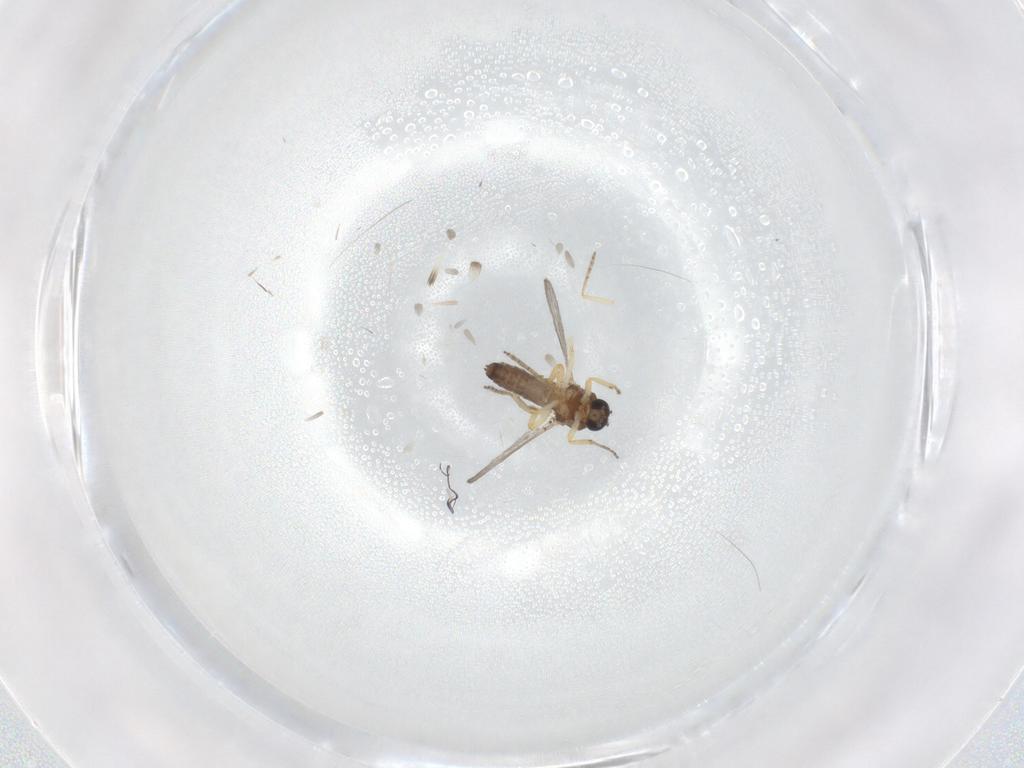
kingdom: Animalia
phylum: Arthropoda
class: Insecta
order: Diptera
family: Ceratopogonidae
